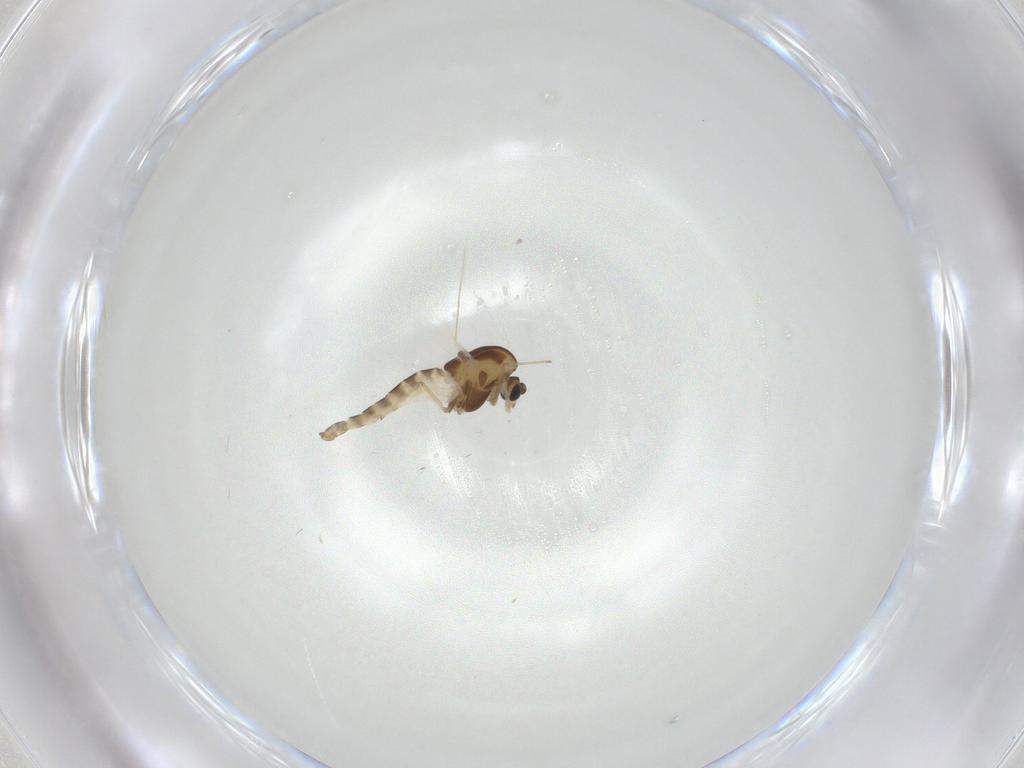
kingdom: Animalia
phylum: Arthropoda
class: Insecta
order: Diptera
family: Chironomidae
